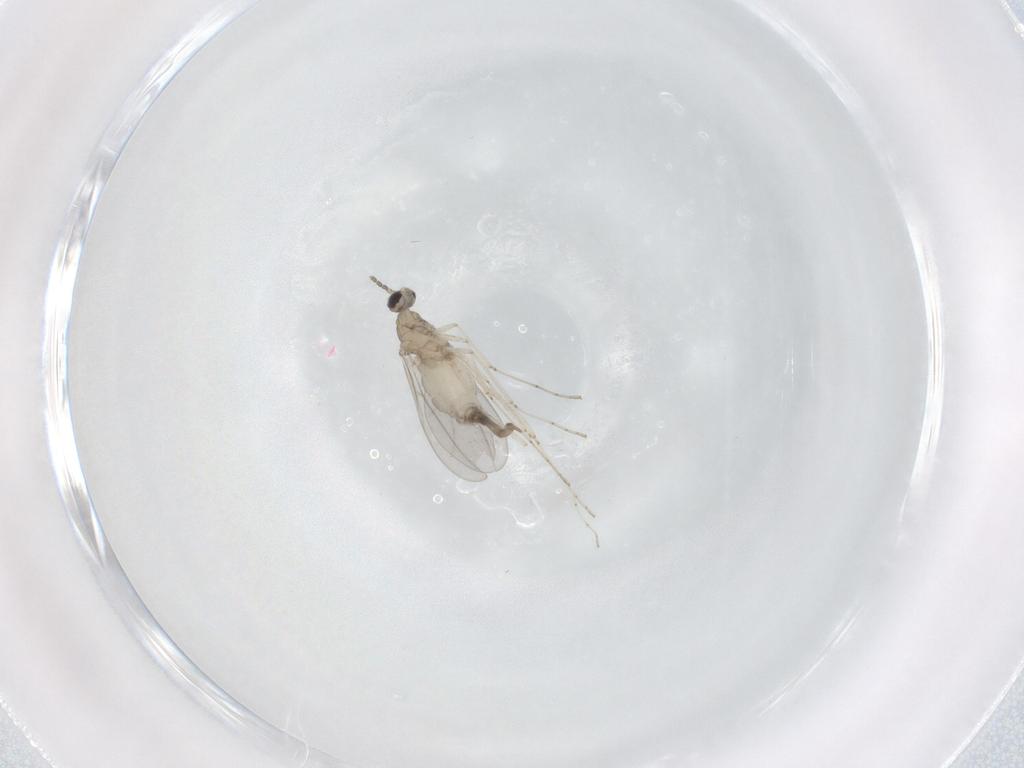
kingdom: Animalia
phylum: Arthropoda
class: Insecta
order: Diptera
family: Cecidomyiidae
